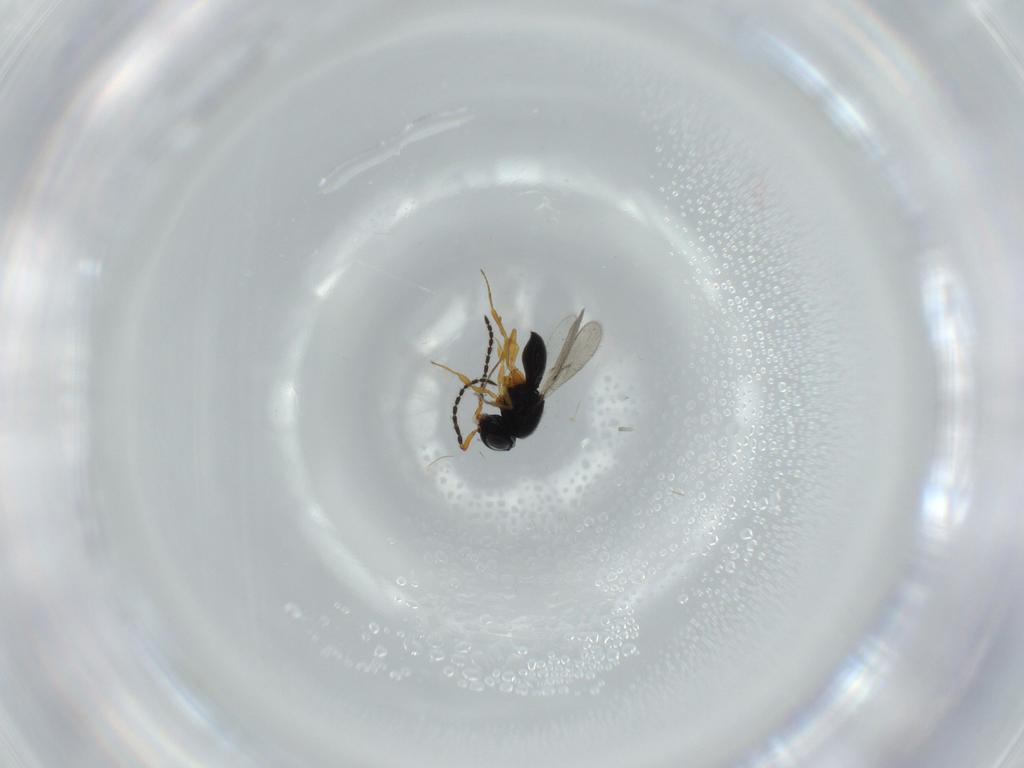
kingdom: Animalia
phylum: Arthropoda
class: Insecta
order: Hymenoptera
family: Scelionidae
